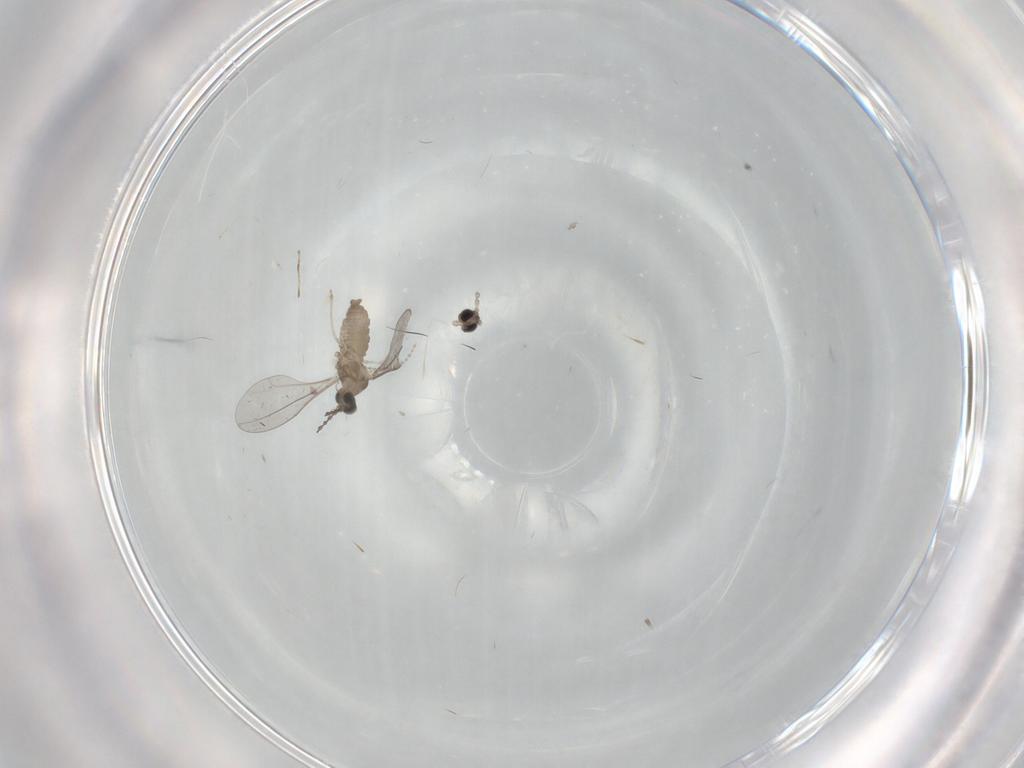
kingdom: Animalia
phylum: Arthropoda
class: Insecta
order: Diptera
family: Cecidomyiidae
